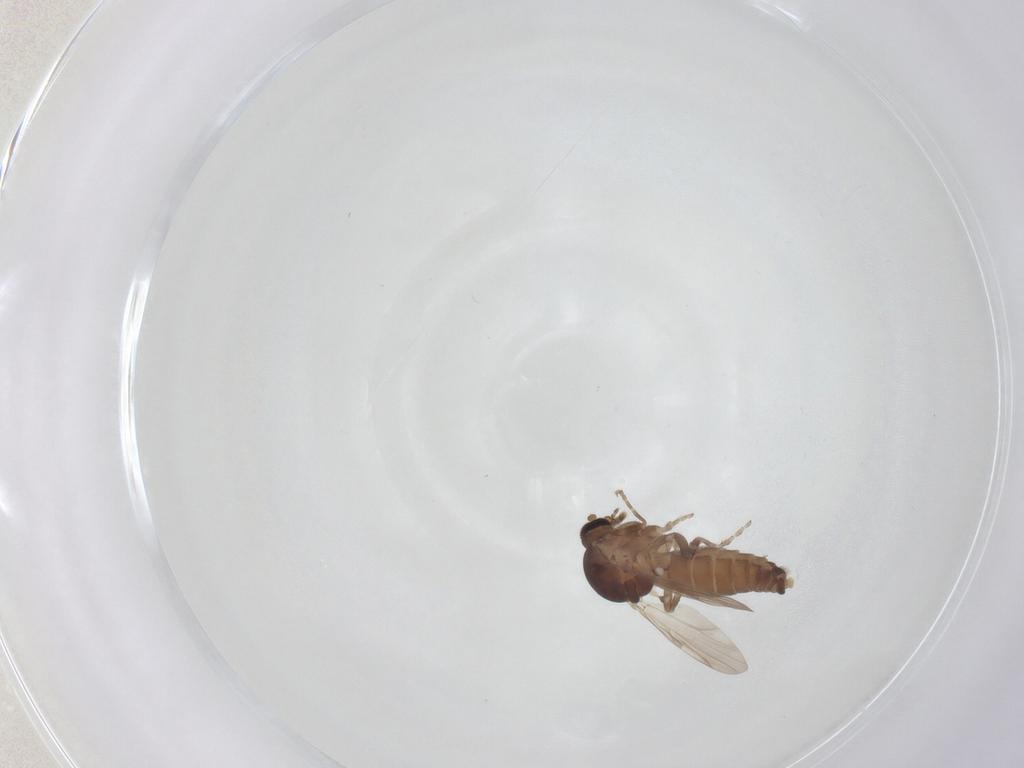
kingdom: Animalia
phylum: Arthropoda
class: Insecta
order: Diptera
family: Ceratopogonidae
